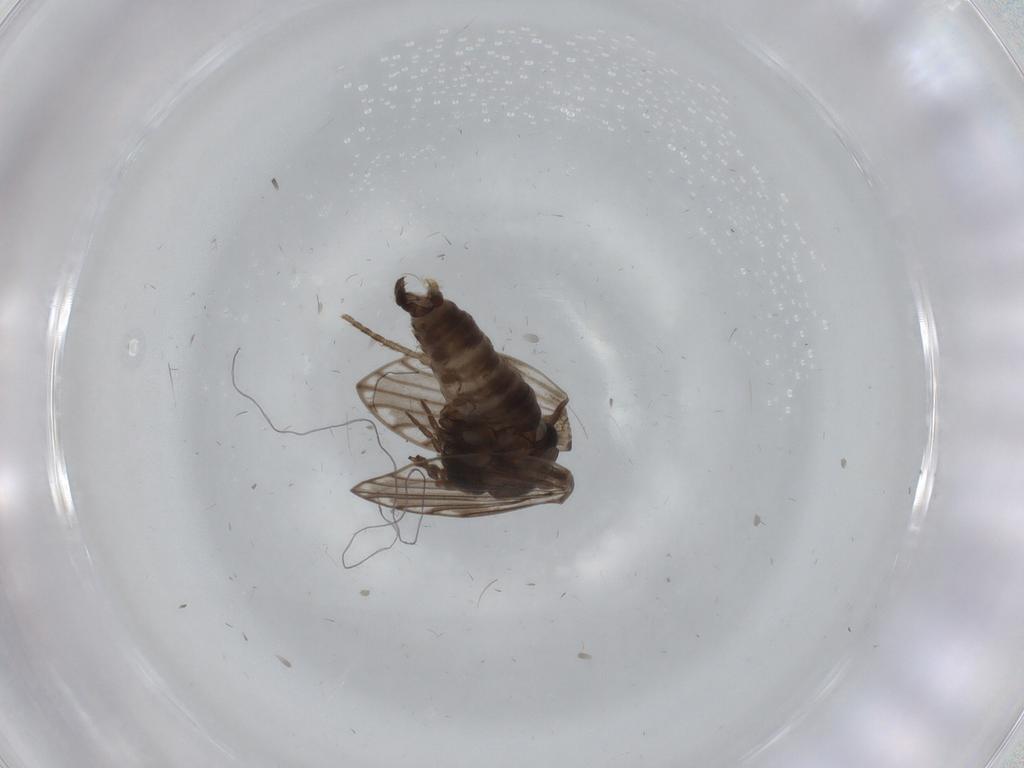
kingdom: Animalia
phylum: Arthropoda
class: Insecta
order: Diptera
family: Psychodidae
